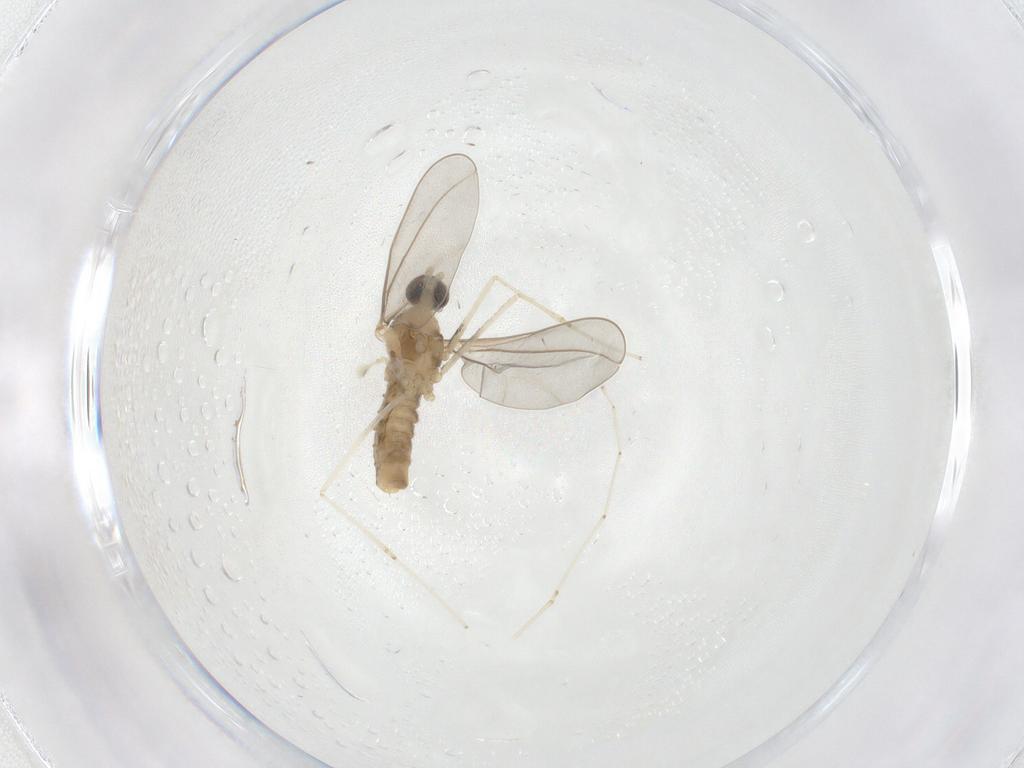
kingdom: Animalia
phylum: Arthropoda
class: Insecta
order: Diptera
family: Cecidomyiidae
